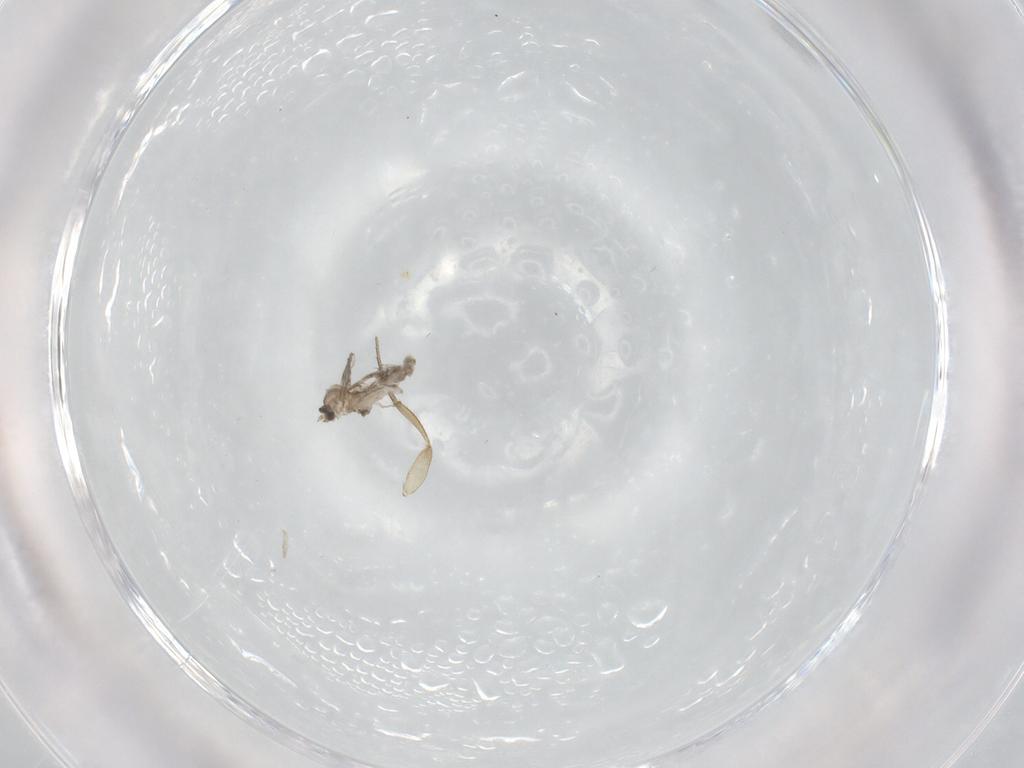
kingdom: Animalia
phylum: Arthropoda
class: Insecta
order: Diptera
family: Cecidomyiidae
